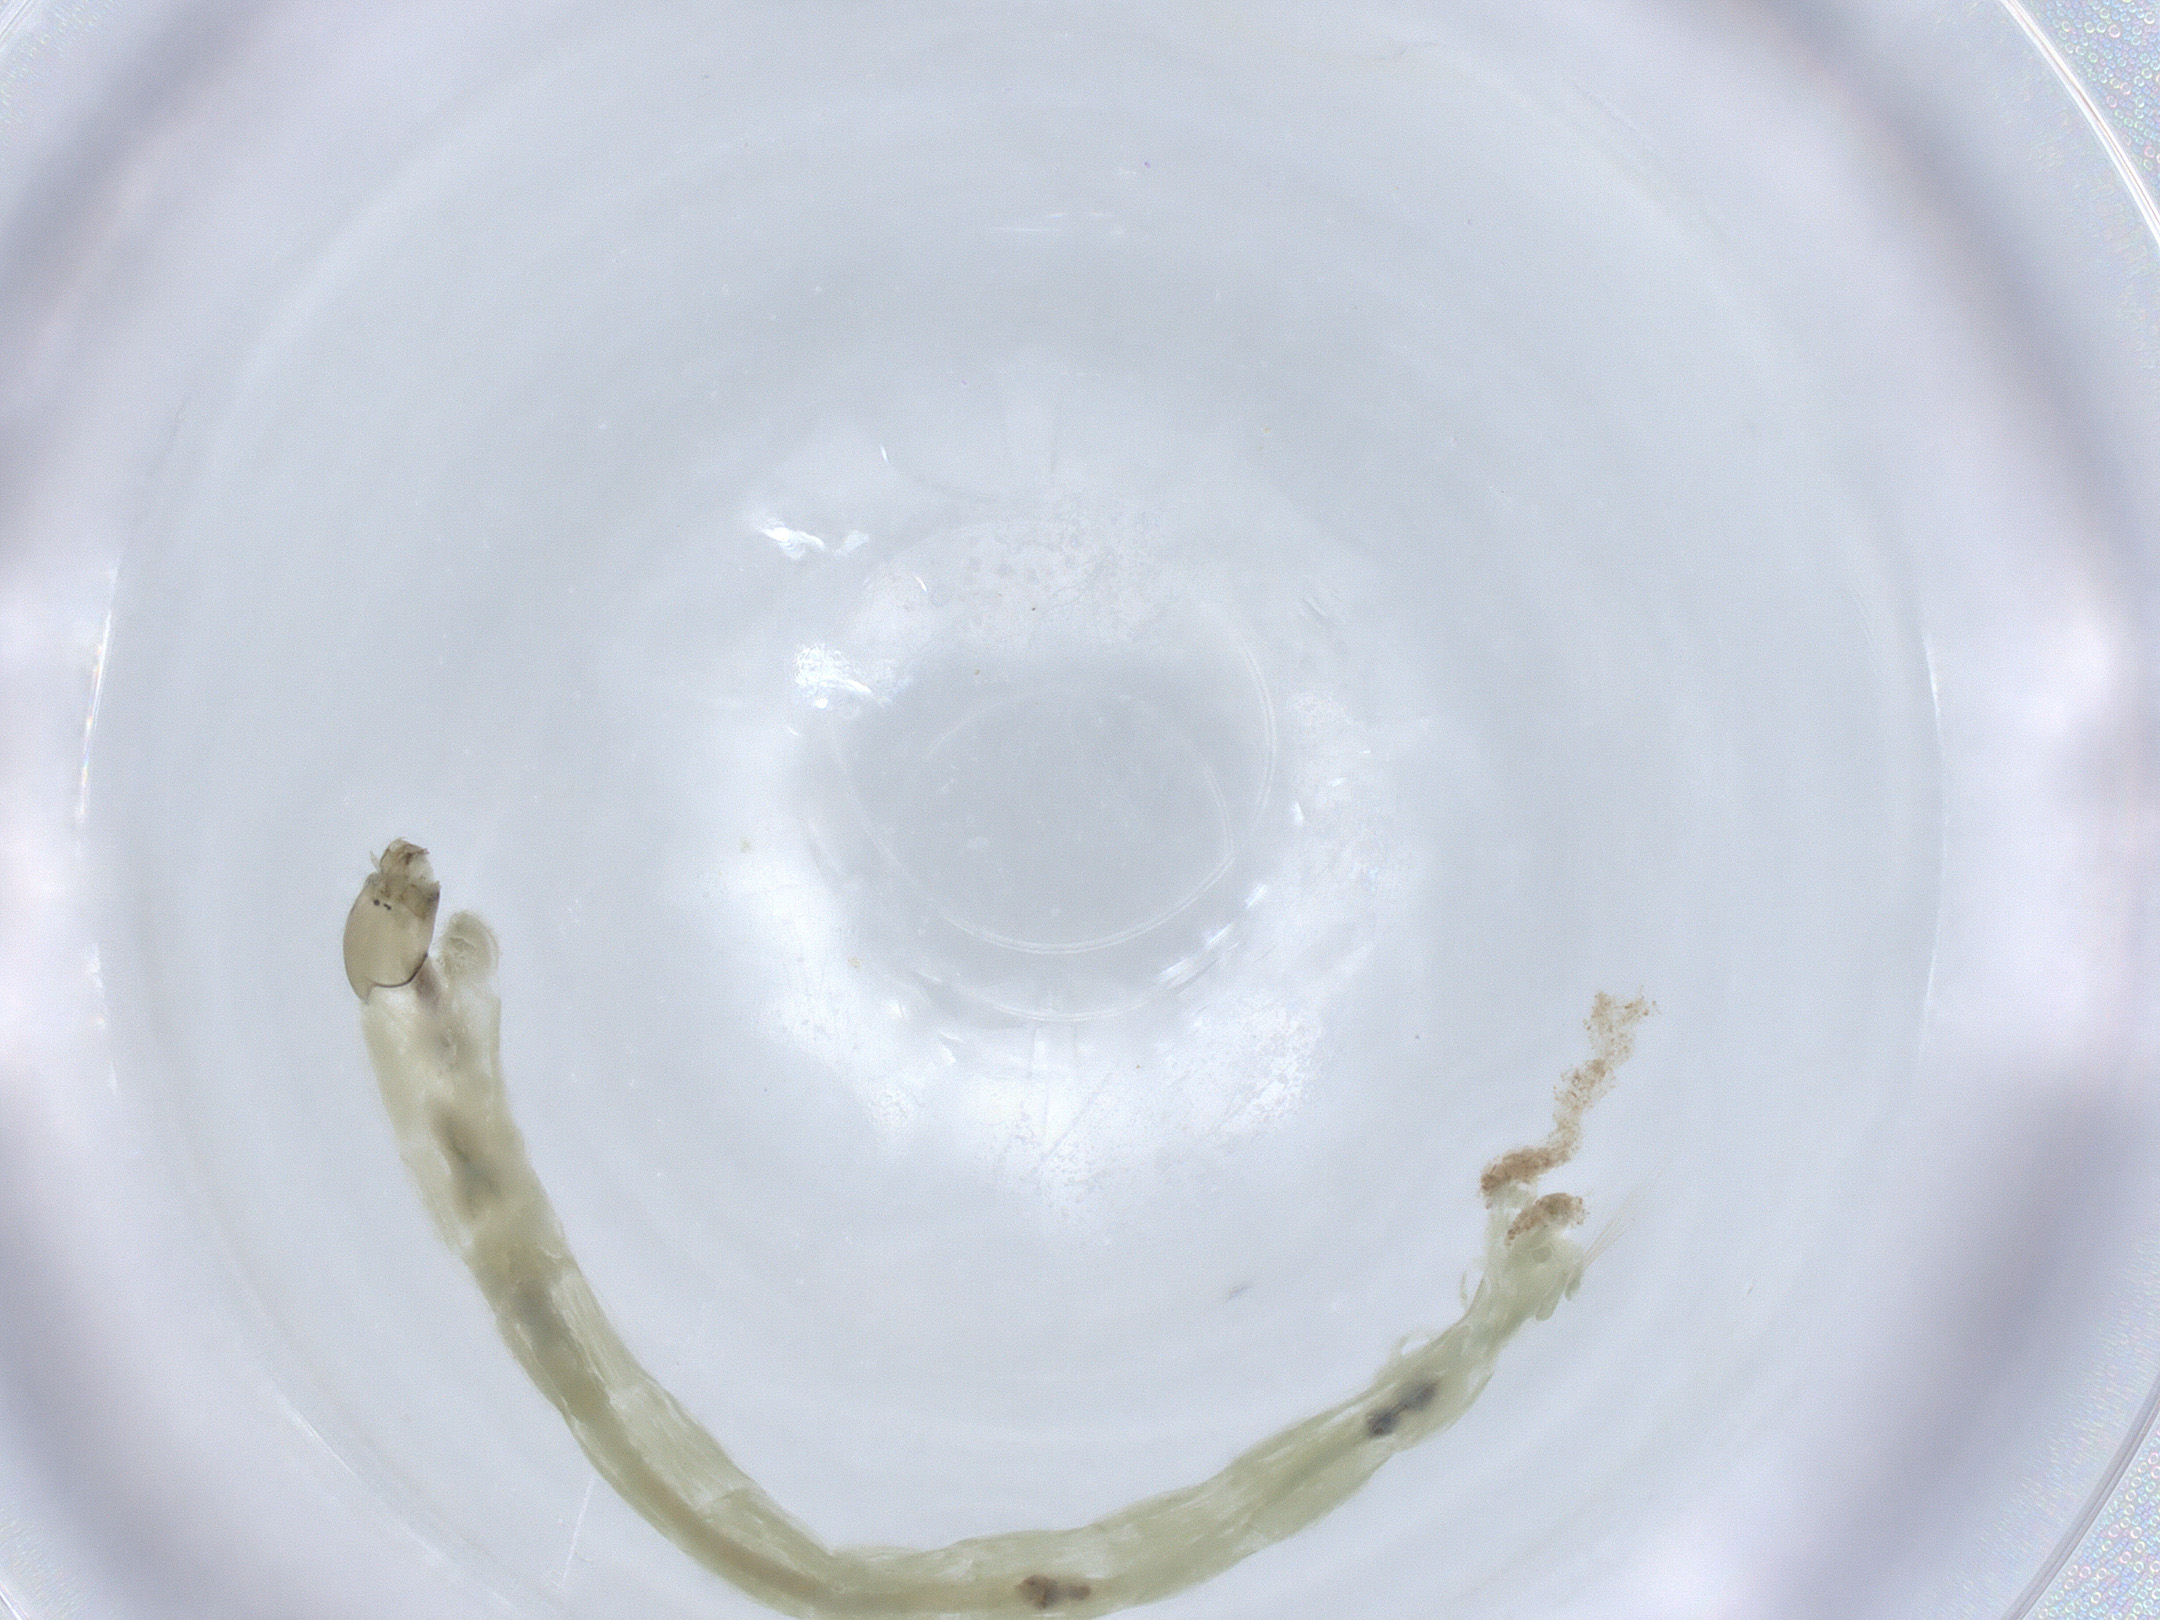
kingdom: Animalia
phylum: Arthropoda
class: Insecta
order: Diptera
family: Chironomidae
